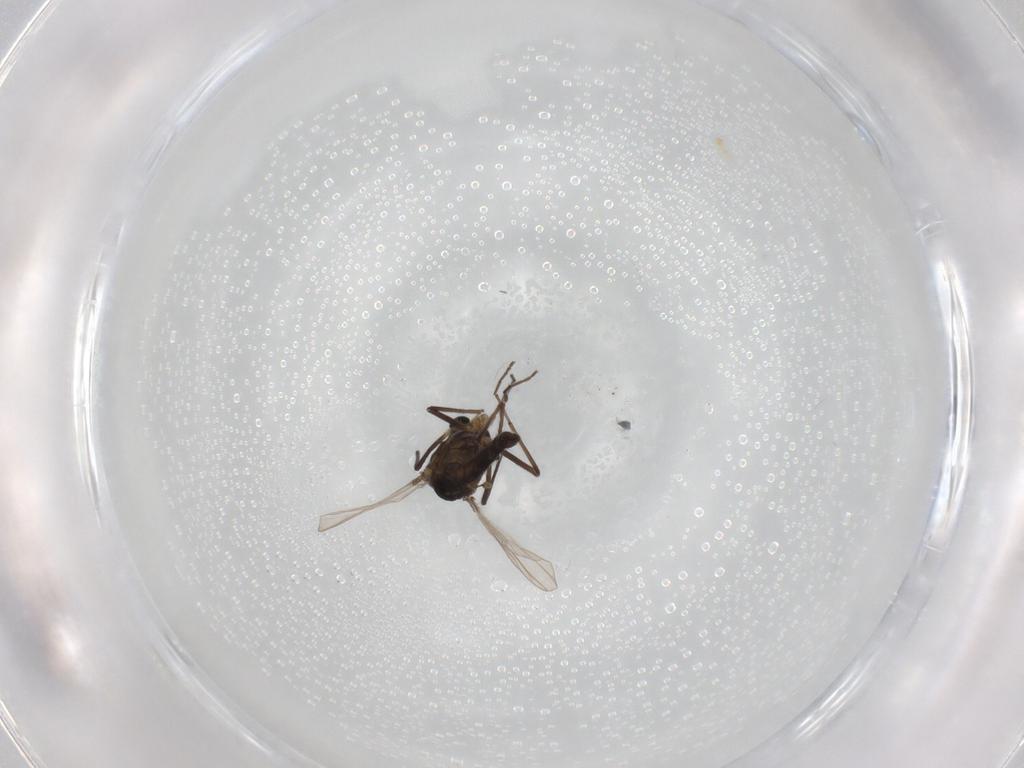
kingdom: Animalia
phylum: Arthropoda
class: Insecta
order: Diptera
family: Chironomidae
